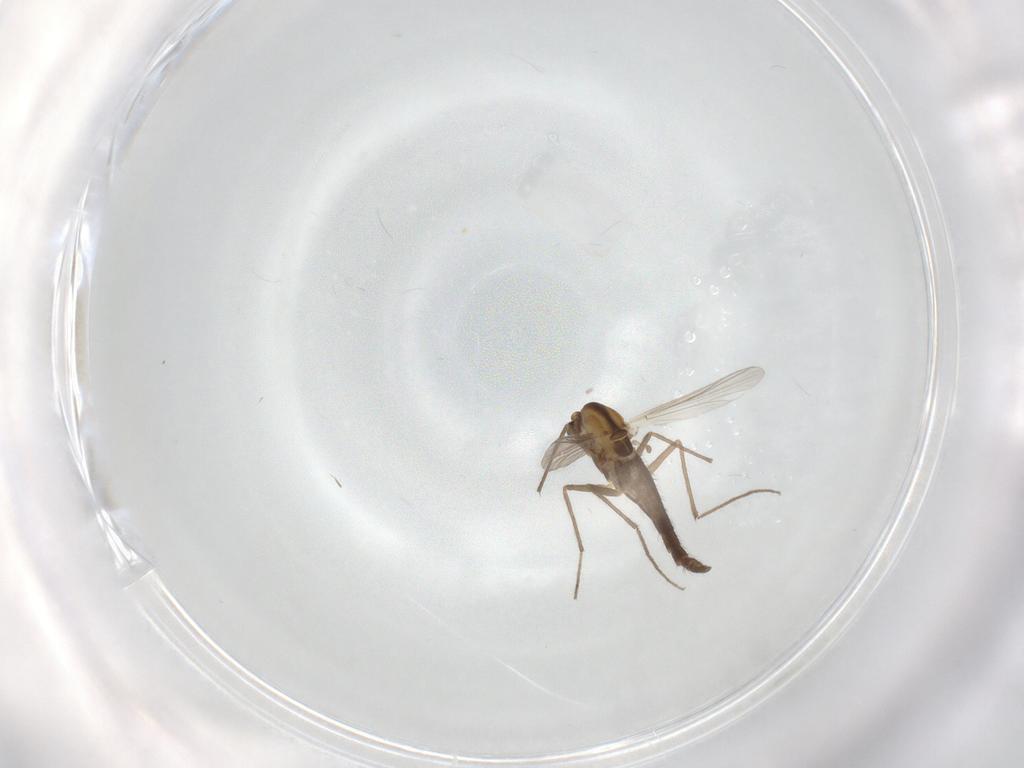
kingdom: Animalia
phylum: Arthropoda
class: Insecta
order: Diptera
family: Chironomidae
